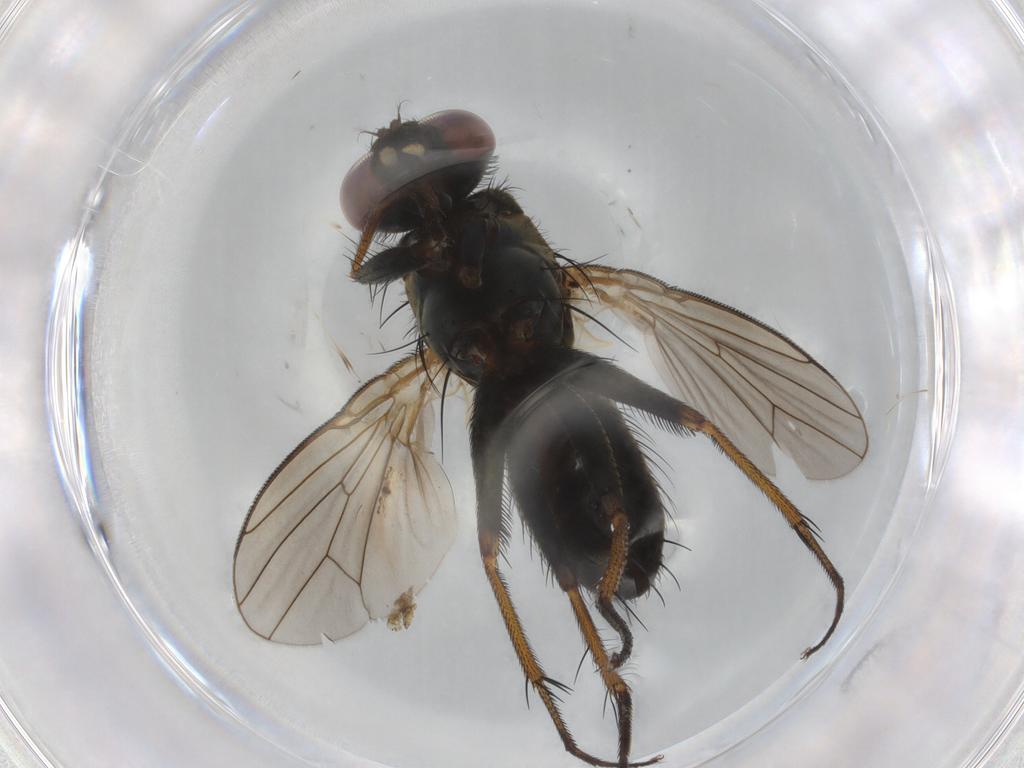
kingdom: Animalia
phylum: Arthropoda
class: Insecta
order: Diptera
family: Muscidae
